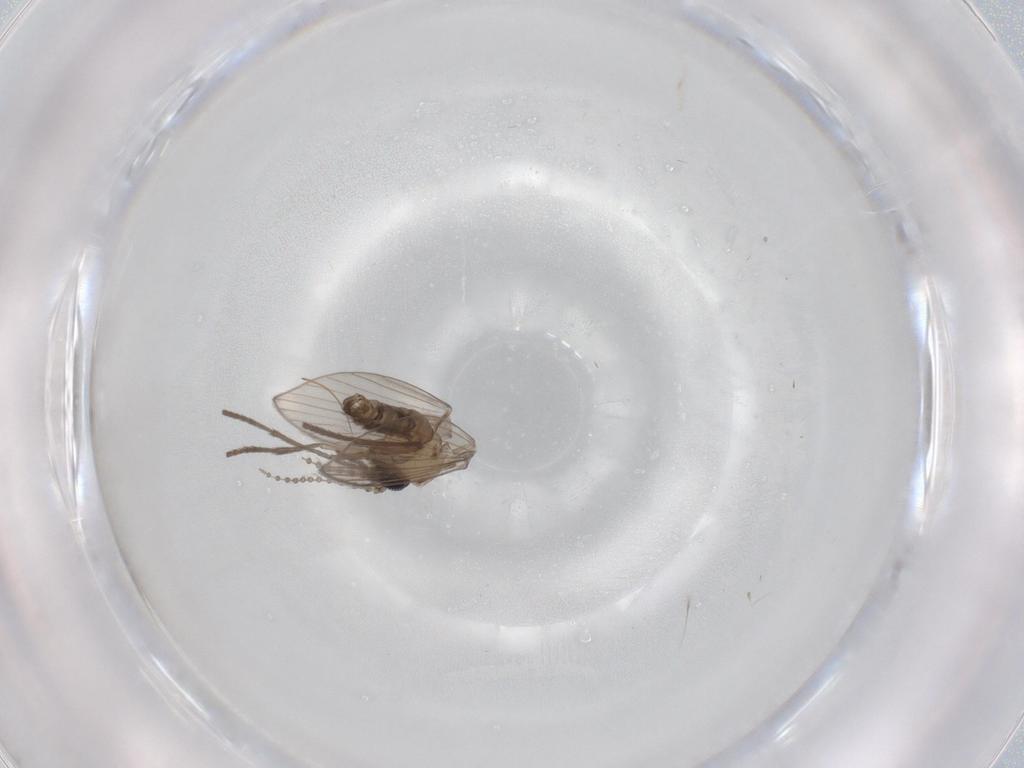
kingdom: Animalia
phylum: Arthropoda
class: Insecta
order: Diptera
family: Psychodidae
